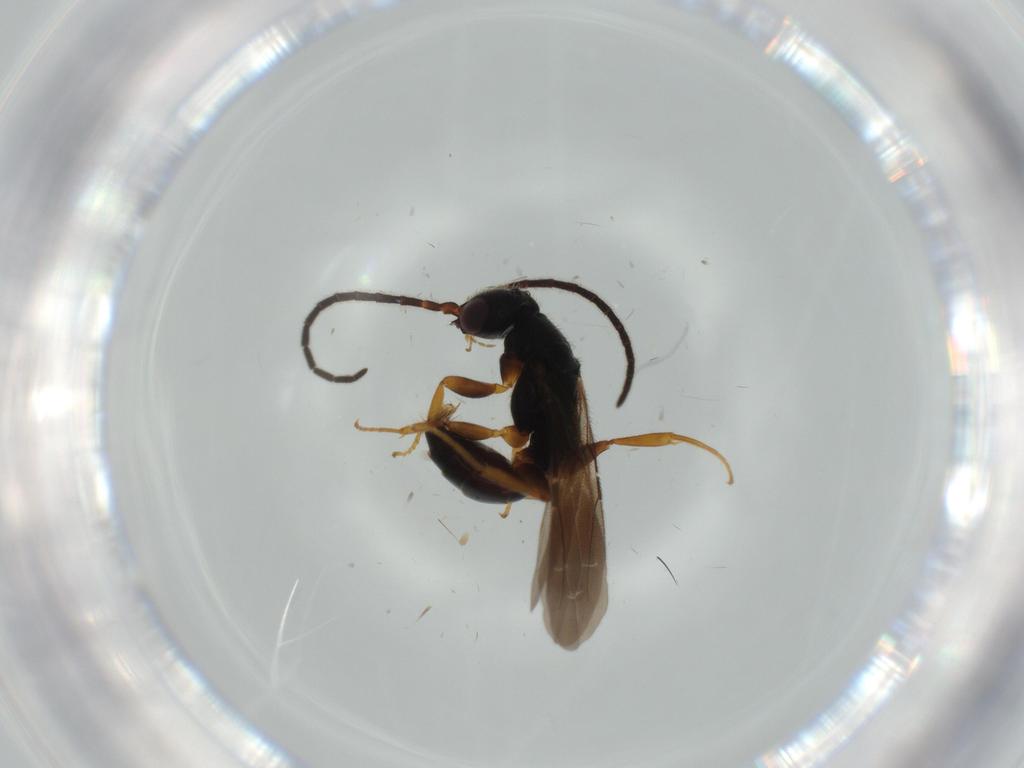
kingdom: Animalia
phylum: Arthropoda
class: Insecta
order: Hymenoptera
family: Bethylidae
